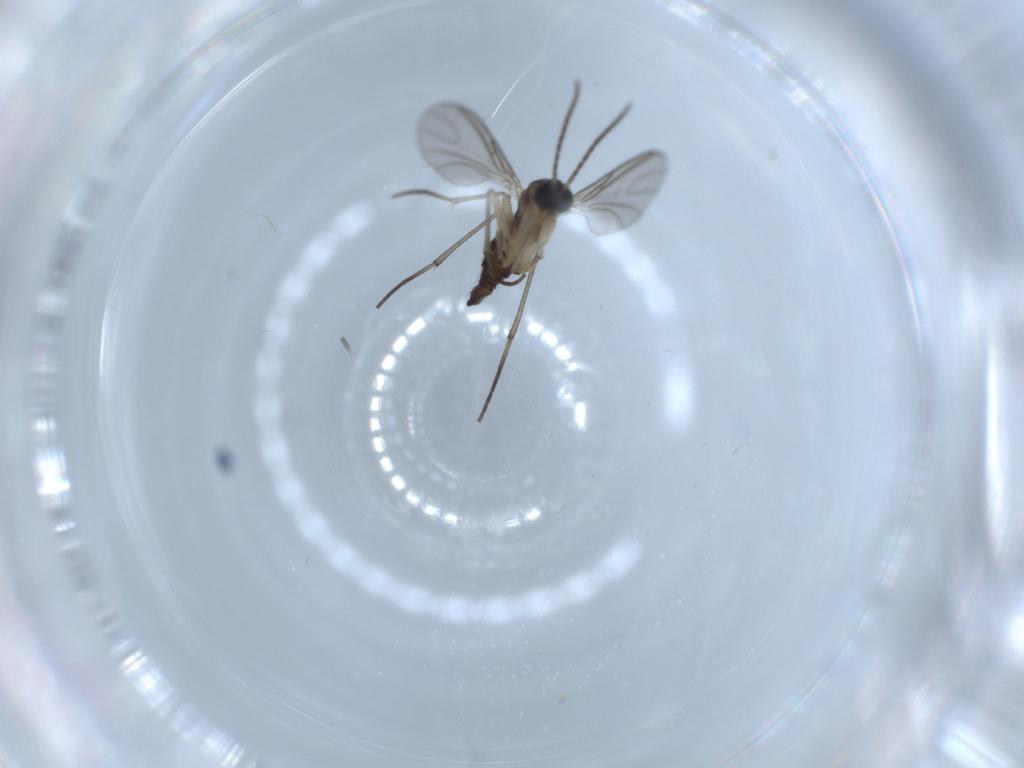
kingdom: Animalia
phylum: Arthropoda
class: Insecta
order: Diptera
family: Sciaridae
